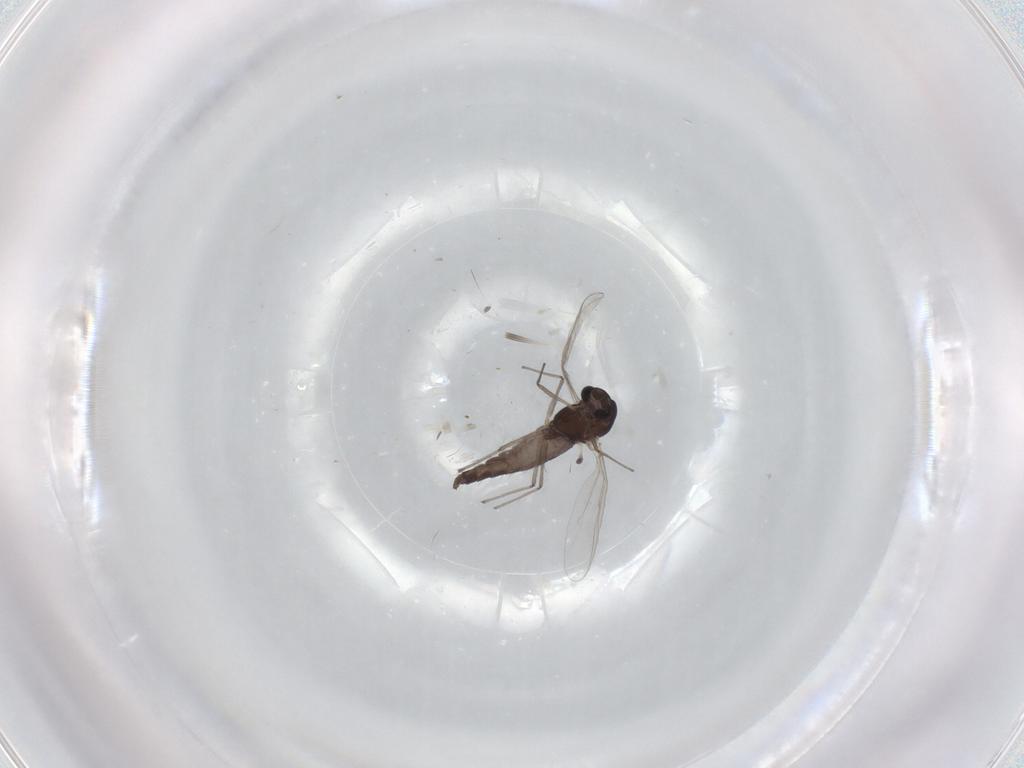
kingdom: Animalia
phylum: Arthropoda
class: Insecta
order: Diptera
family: Chironomidae
